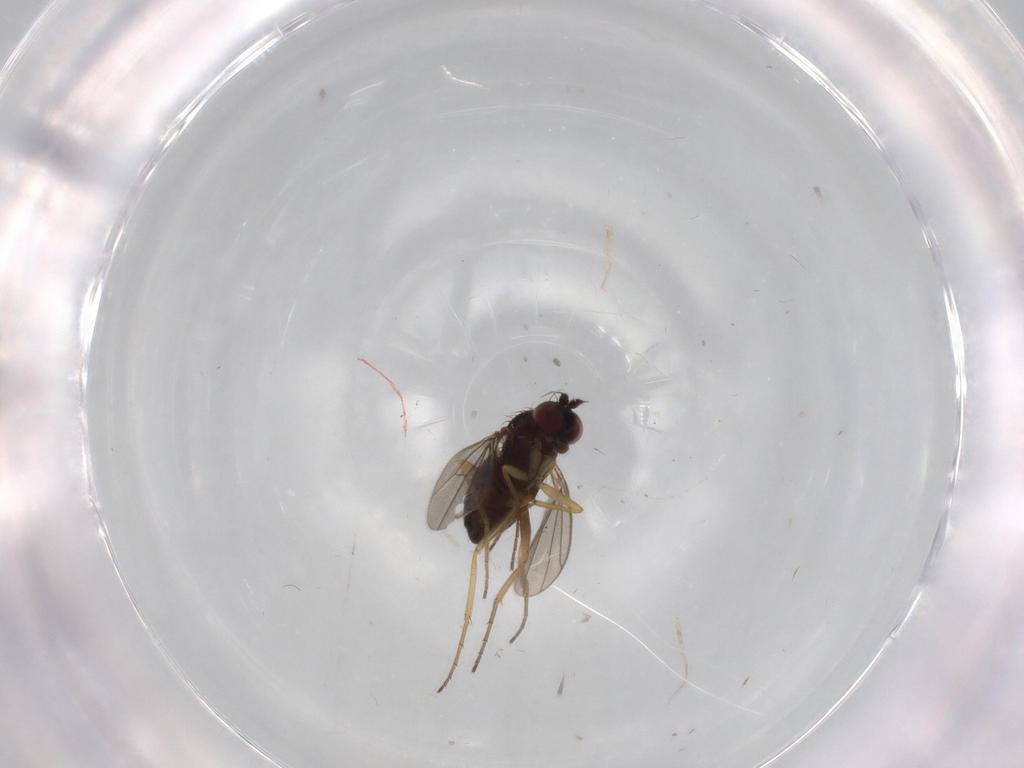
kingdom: Animalia
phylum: Arthropoda
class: Insecta
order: Diptera
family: Dolichopodidae
